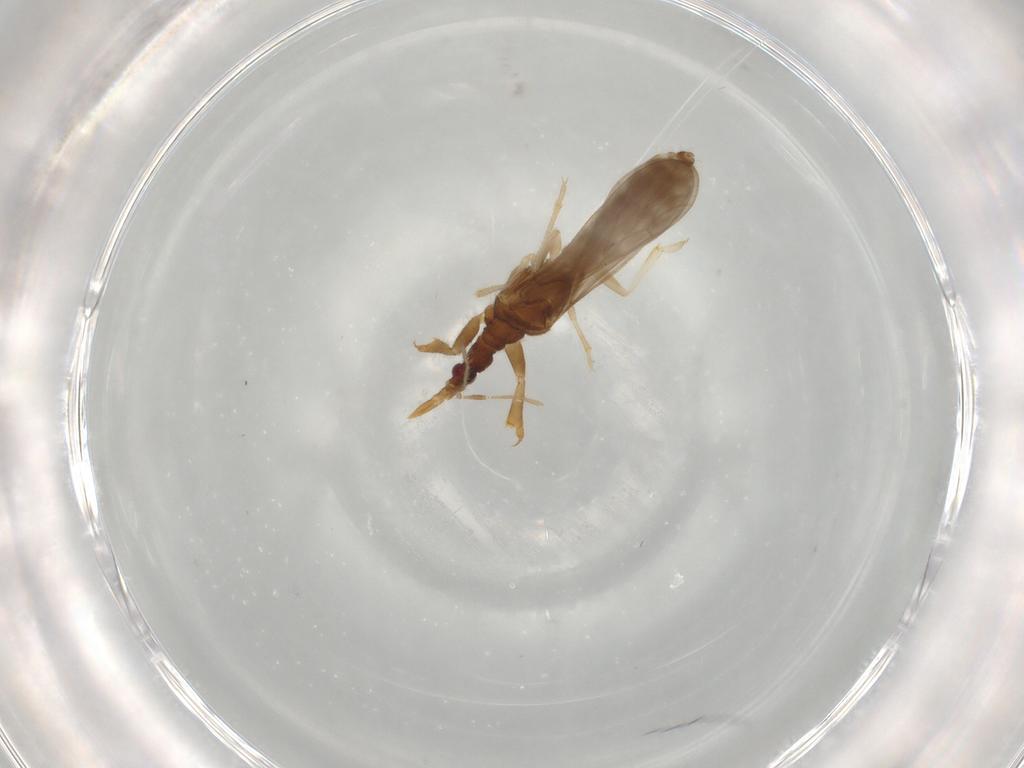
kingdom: Animalia
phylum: Arthropoda
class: Insecta
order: Hemiptera
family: Enicocephalidae
